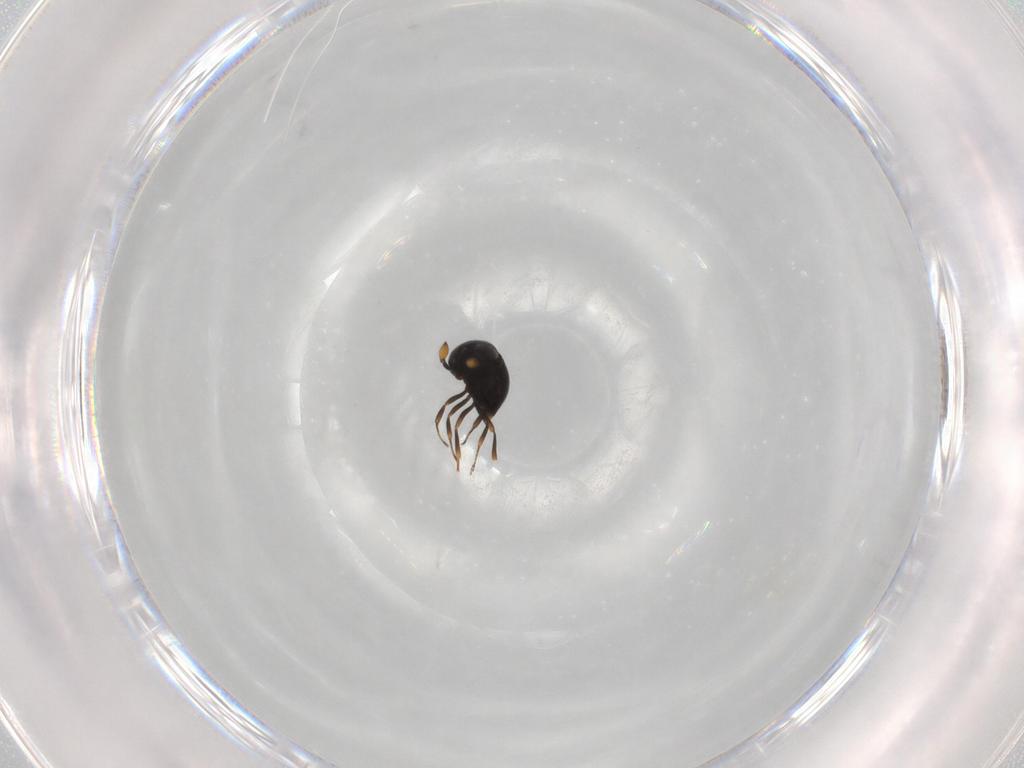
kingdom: Animalia
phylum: Arthropoda
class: Insecta
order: Hymenoptera
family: Scelionidae
